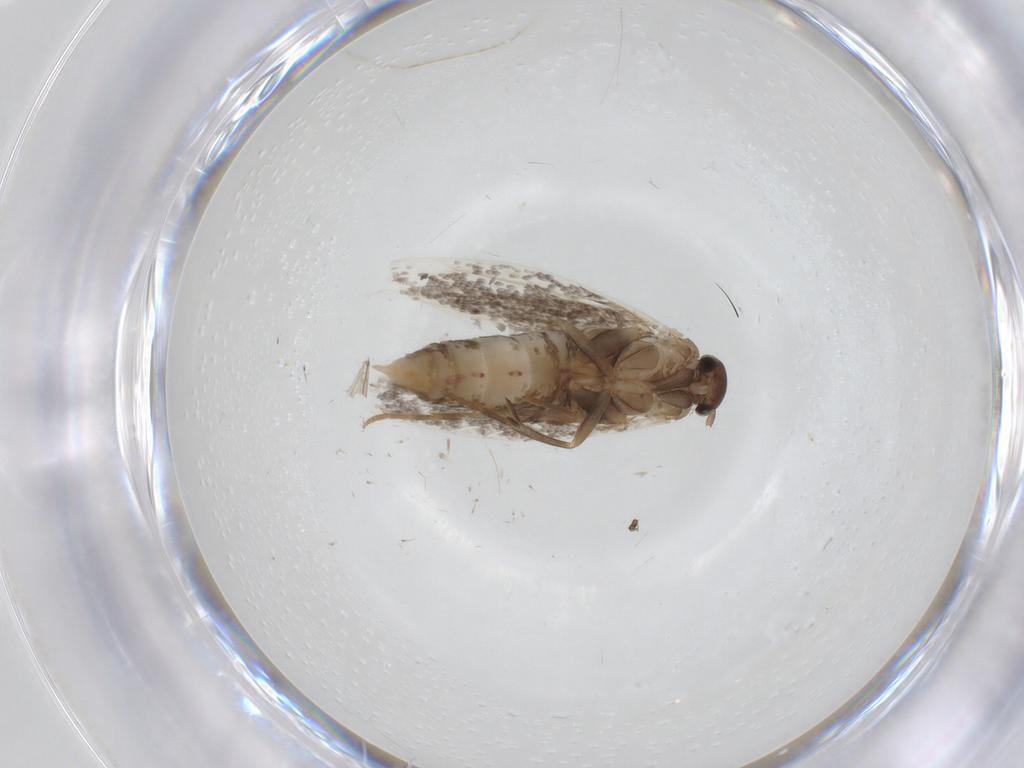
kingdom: Animalia
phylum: Arthropoda
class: Insecta
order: Lepidoptera
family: Elachistidae
